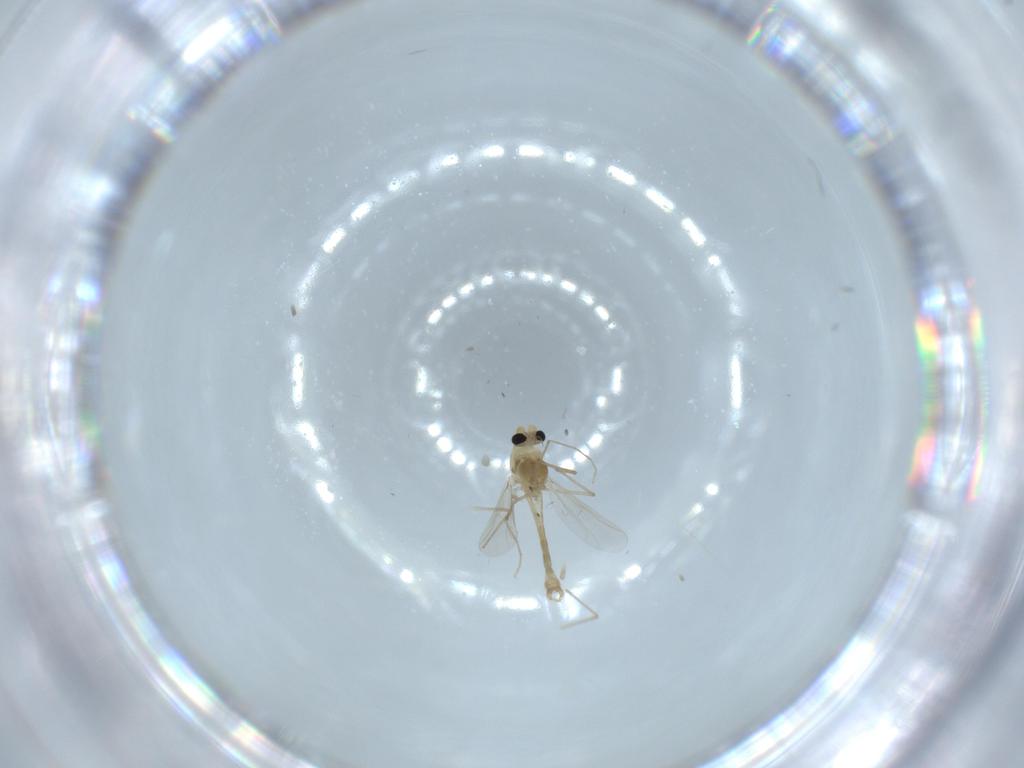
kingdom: Animalia
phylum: Arthropoda
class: Insecta
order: Diptera
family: Chironomidae
